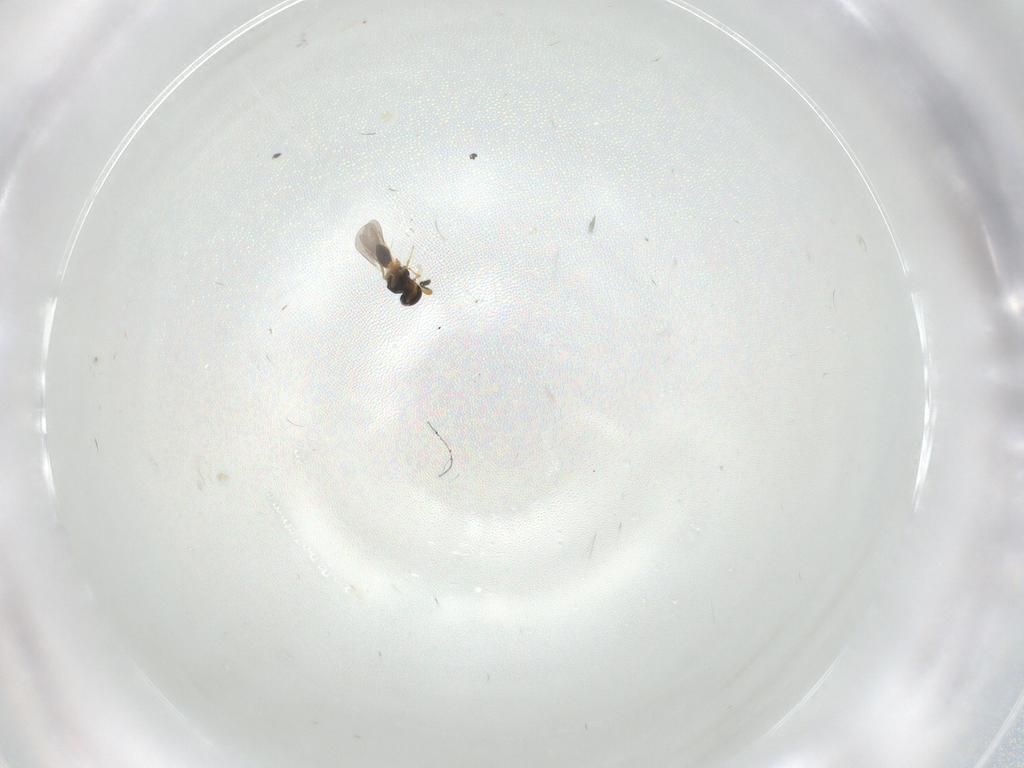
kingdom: Animalia
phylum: Arthropoda
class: Insecta
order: Hymenoptera
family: Platygastridae
